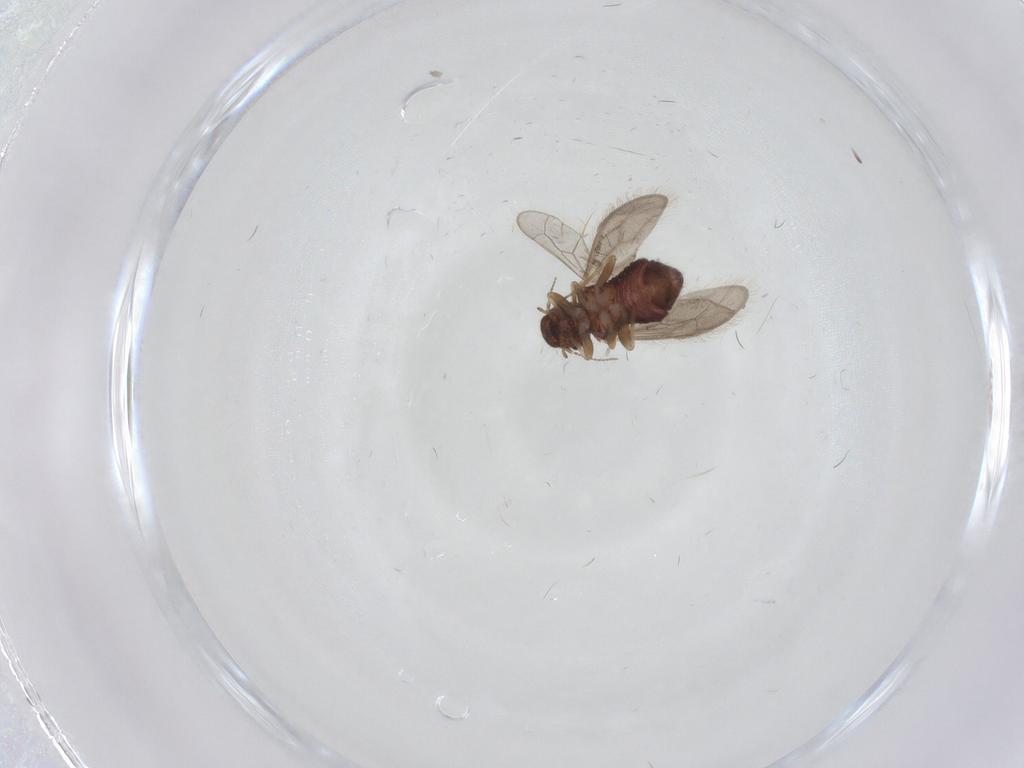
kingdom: Animalia
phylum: Arthropoda
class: Insecta
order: Psocodea
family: Archipsocidae
